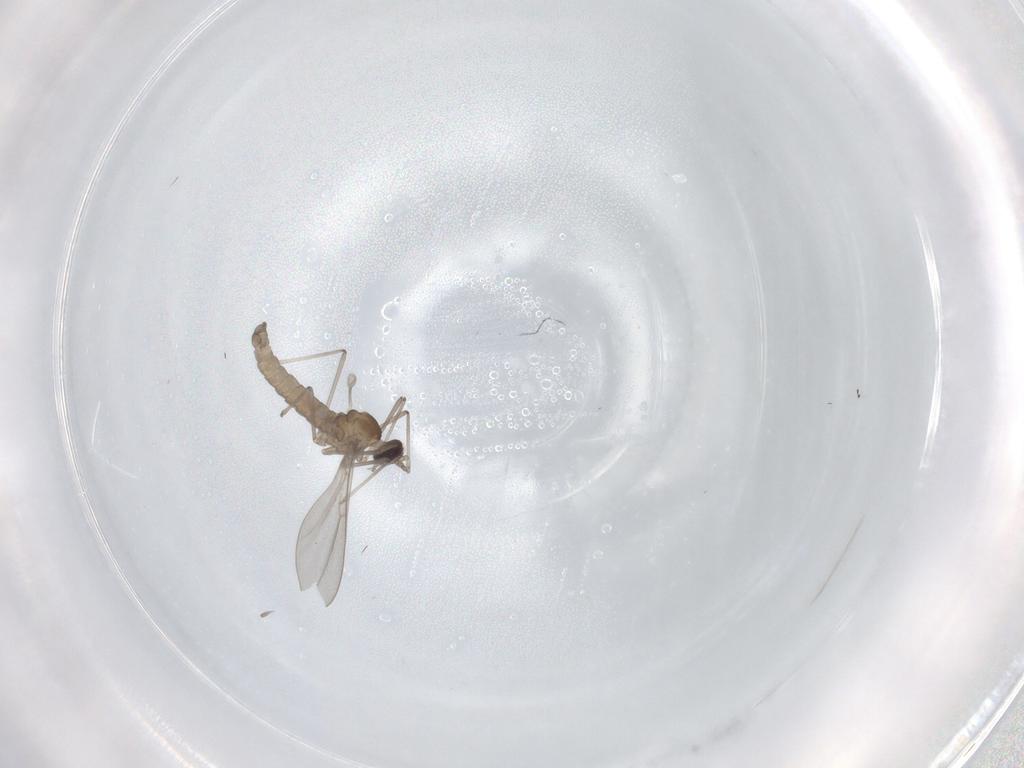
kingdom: Animalia
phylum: Arthropoda
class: Insecta
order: Diptera
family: Cecidomyiidae
